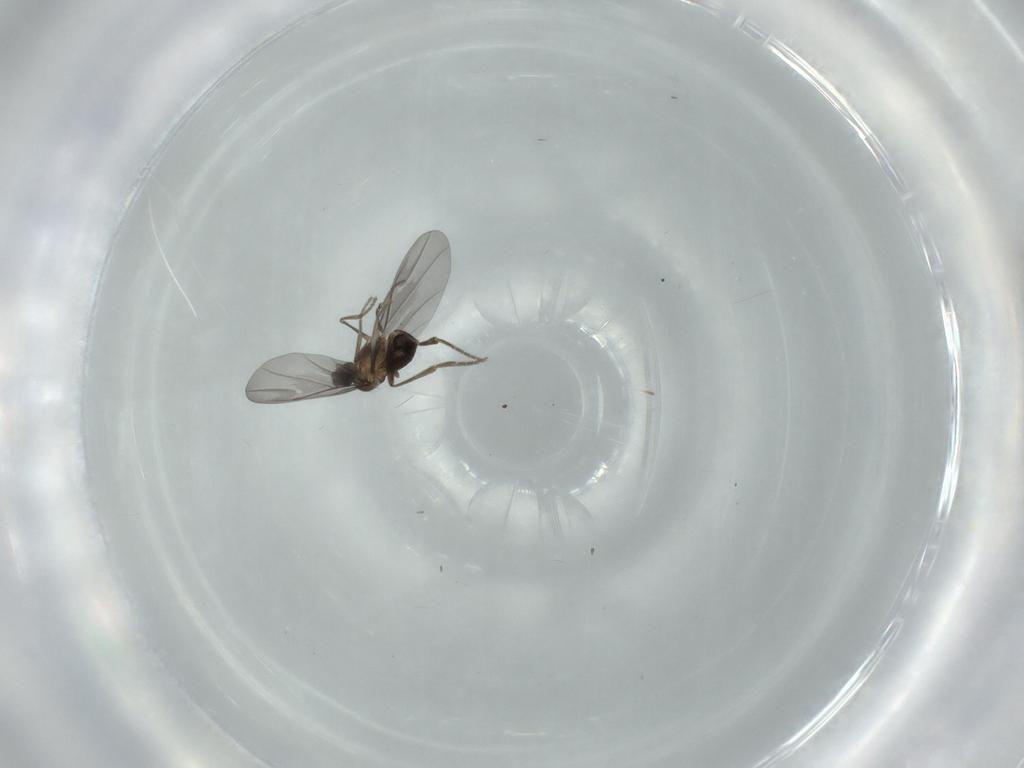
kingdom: Animalia
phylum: Arthropoda
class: Insecta
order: Diptera
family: Phoridae
